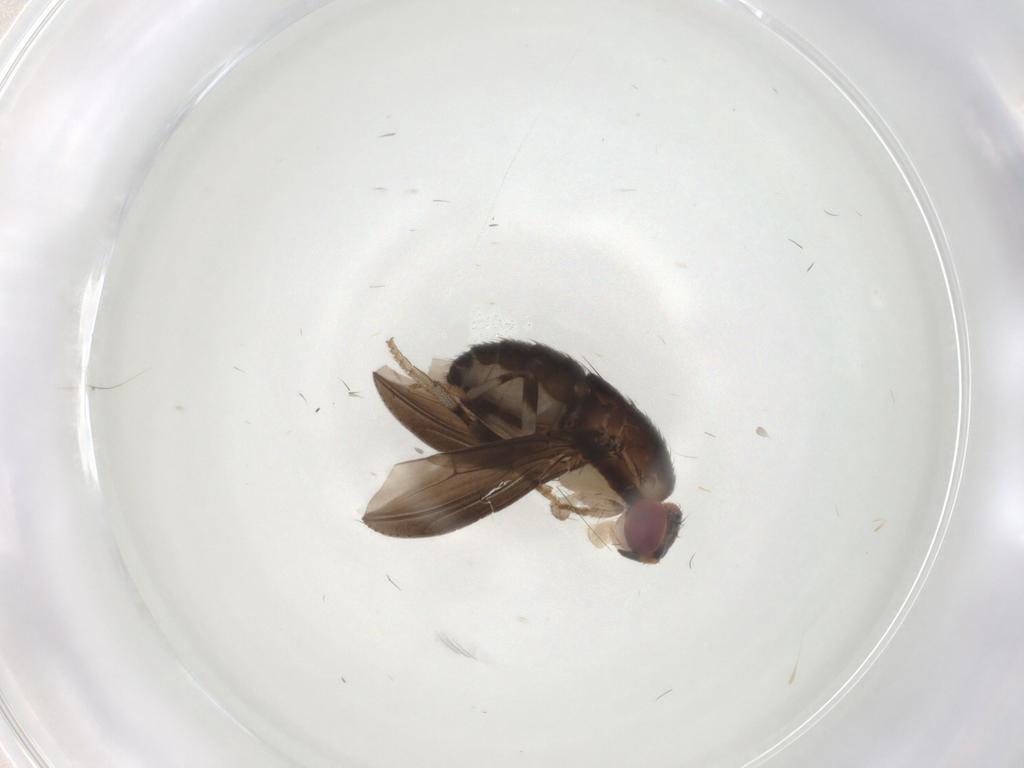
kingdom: Animalia
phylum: Arthropoda
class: Insecta
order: Diptera
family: Drosophilidae
